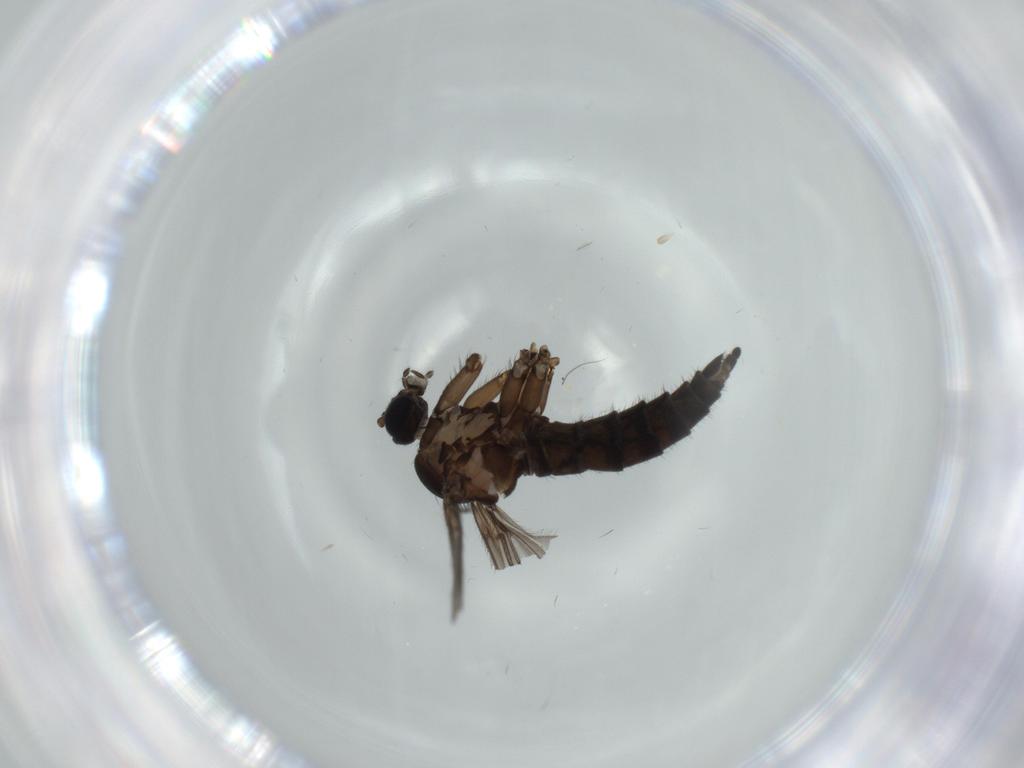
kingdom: Animalia
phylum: Arthropoda
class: Insecta
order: Diptera
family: Sciaridae
